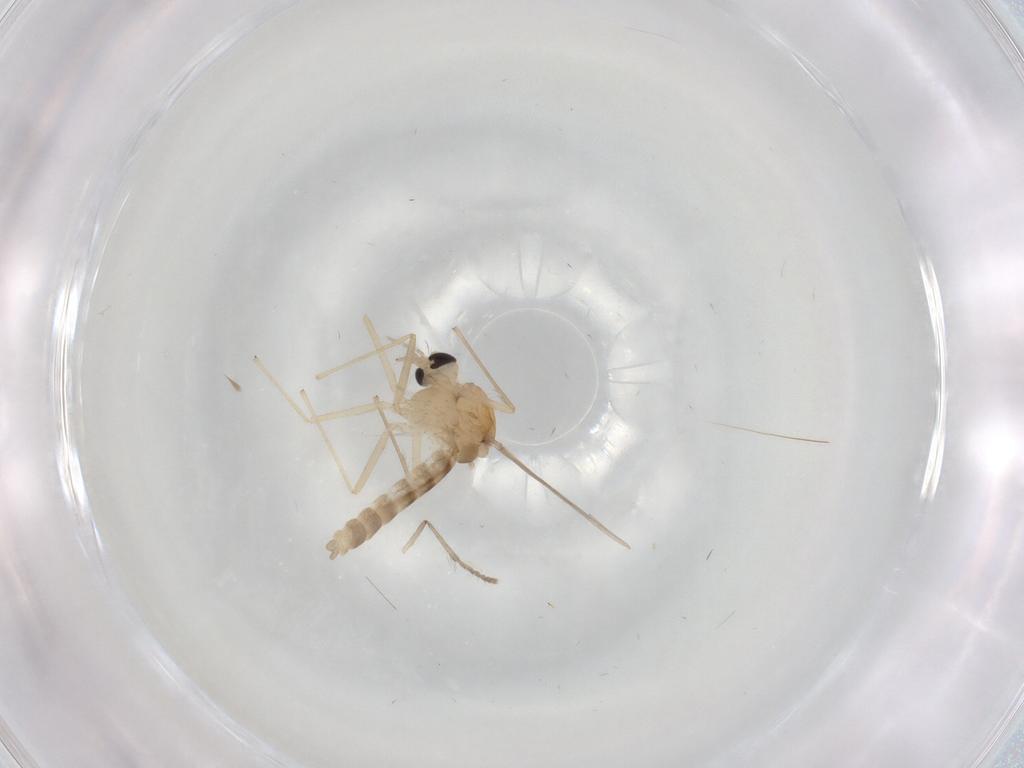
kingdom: Animalia
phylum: Arthropoda
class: Insecta
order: Diptera
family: Chironomidae
